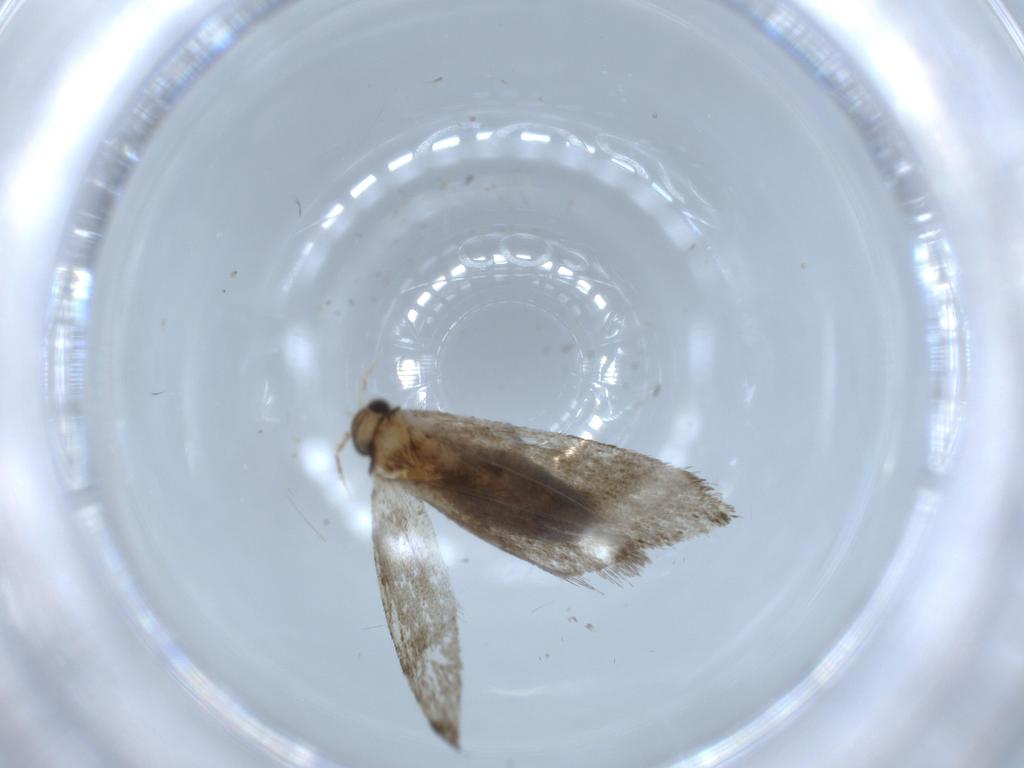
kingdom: Animalia
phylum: Arthropoda
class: Insecta
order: Lepidoptera
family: Tineidae
